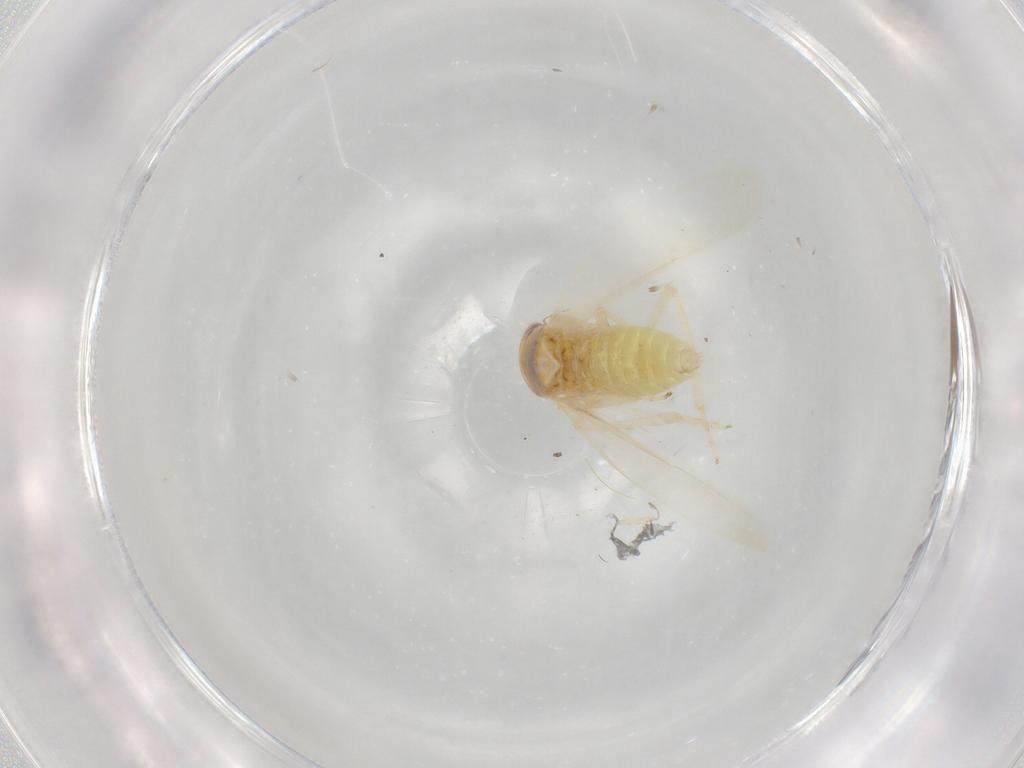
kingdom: Animalia
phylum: Arthropoda
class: Insecta
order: Hemiptera
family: Cicadellidae
